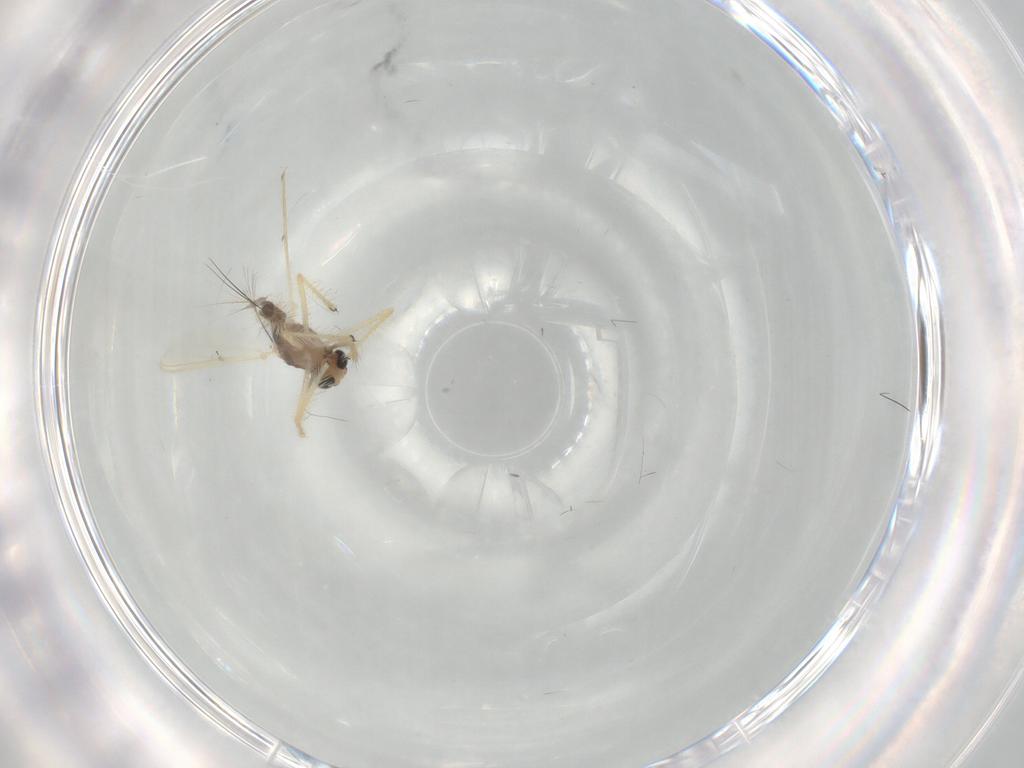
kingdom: Animalia
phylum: Arthropoda
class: Insecta
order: Diptera
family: Chironomidae
